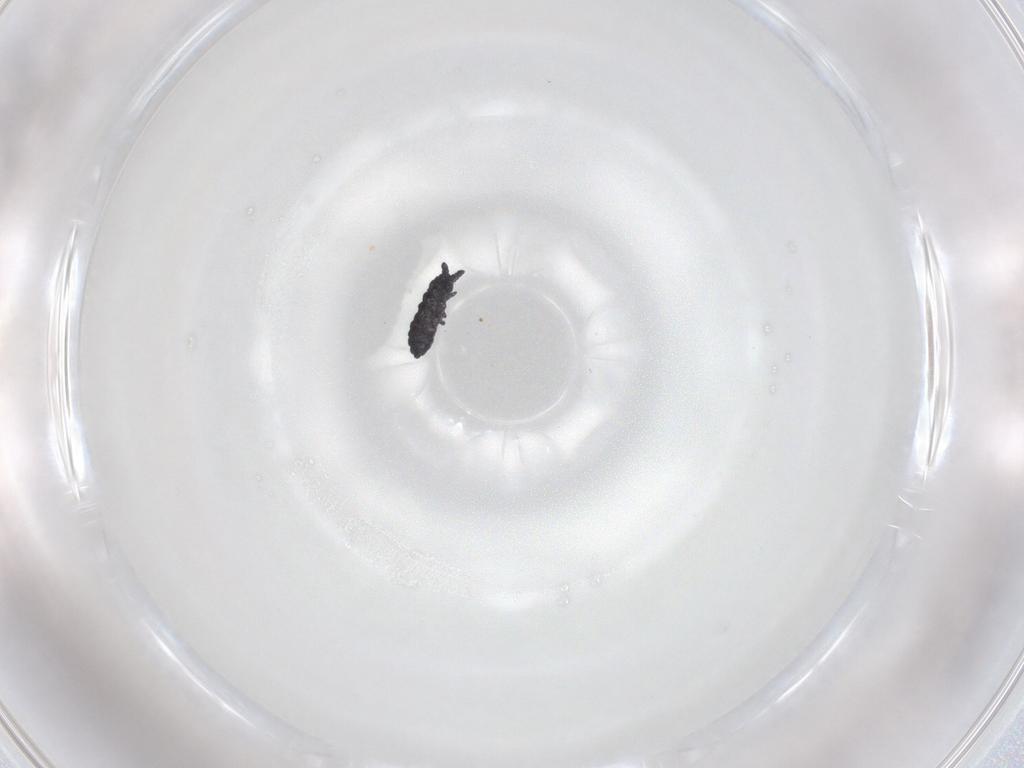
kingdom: Animalia
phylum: Arthropoda
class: Collembola
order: Poduromorpha
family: Neanuridae
